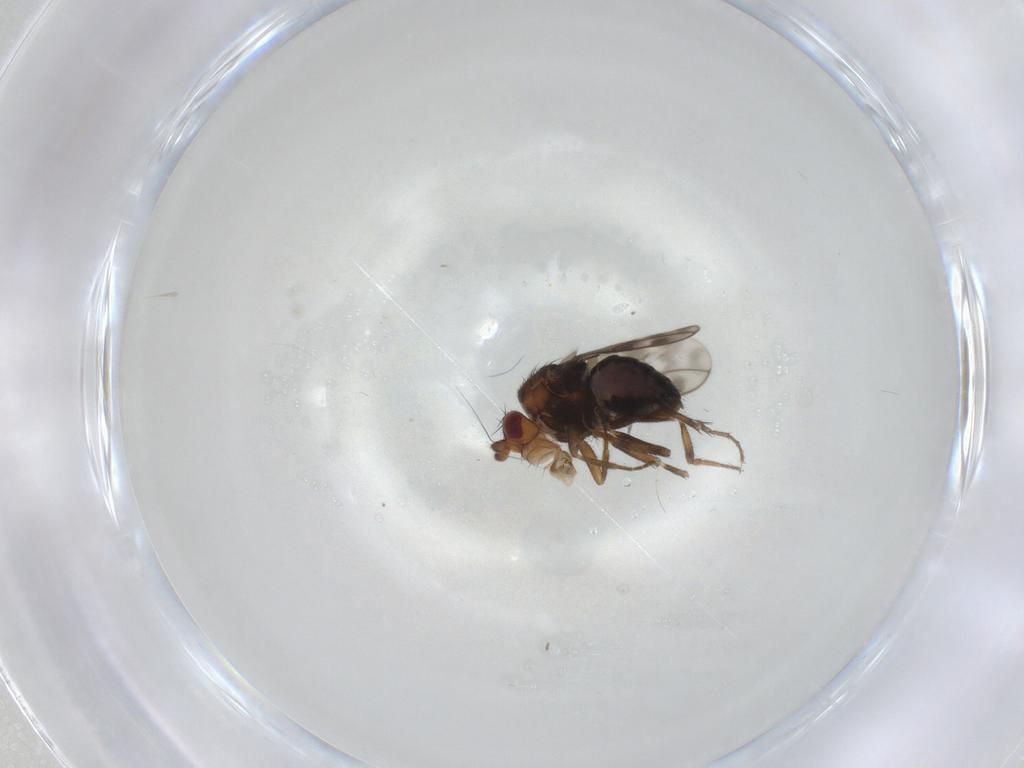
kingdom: Animalia
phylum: Arthropoda
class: Insecta
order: Diptera
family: Sphaeroceridae
